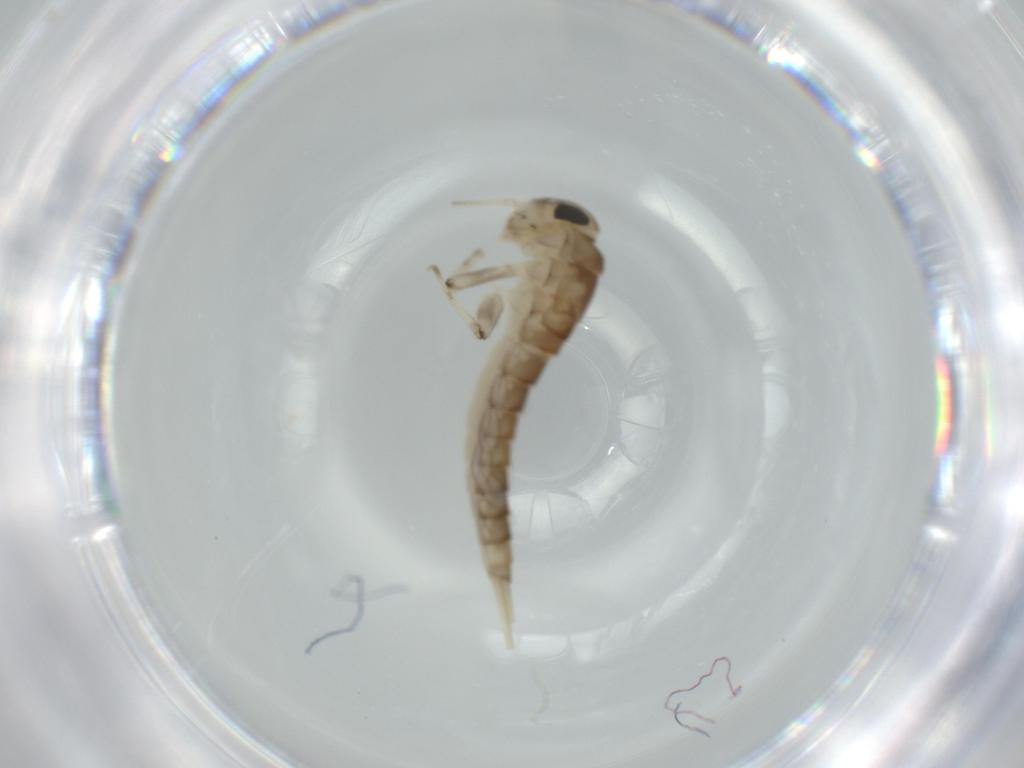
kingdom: Animalia
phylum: Arthropoda
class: Insecta
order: Ephemeroptera
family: Baetidae
